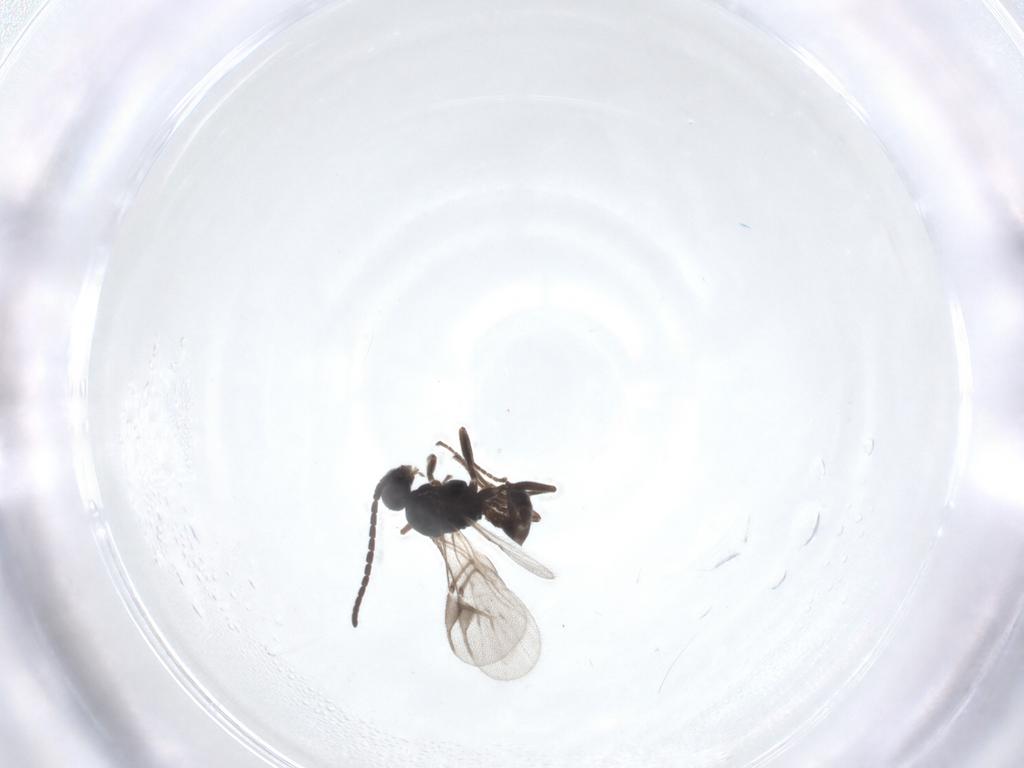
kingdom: Animalia
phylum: Arthropoda
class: Insecta
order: Hymenoptera
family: Braconidae
